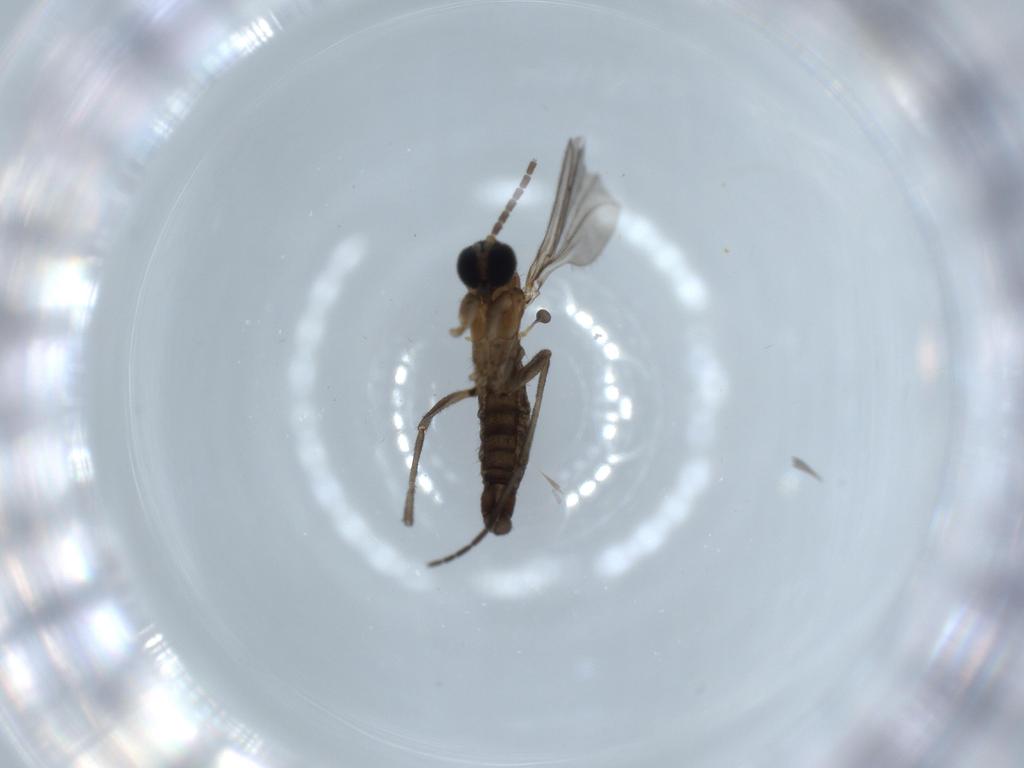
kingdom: Animalia
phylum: Arthropoda
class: Insecta
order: Diptera
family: Sciaridae
